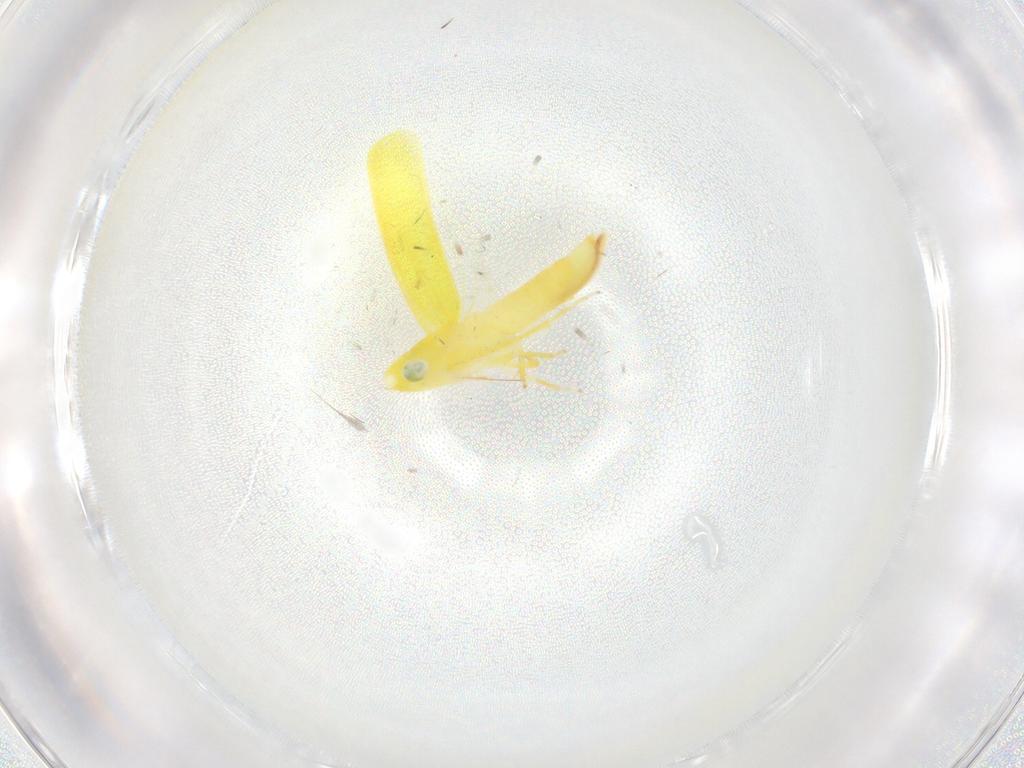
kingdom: Animalia
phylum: Arthropoda
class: Insecta
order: Hemiptera
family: Cicadellidae
